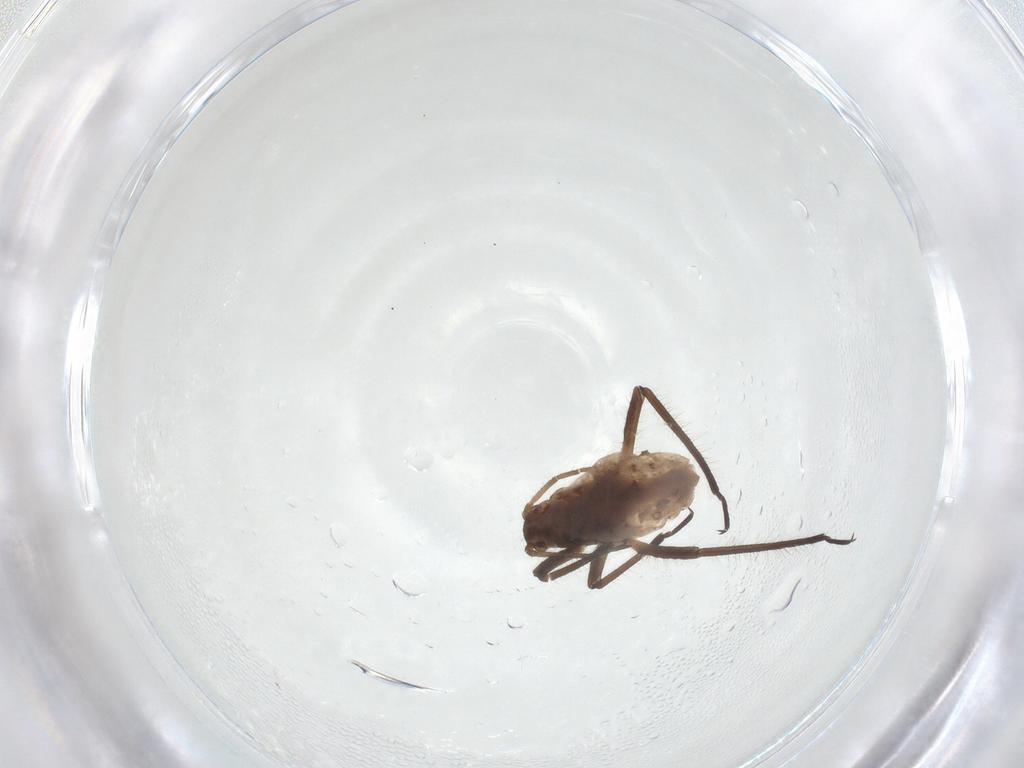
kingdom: Animalia
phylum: Arthropoda
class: Insecta
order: Hemiptera
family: Aphididae
